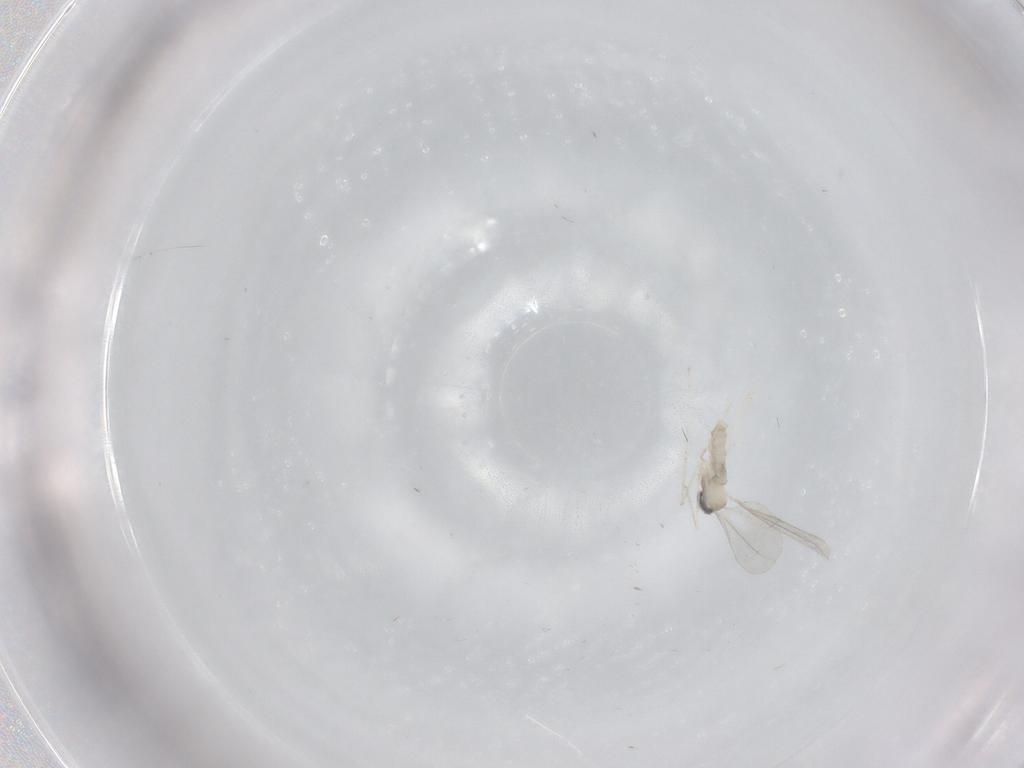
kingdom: Animalia
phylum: Arthropoda
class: Insecta
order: Diptera
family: Cecidomyiidae
